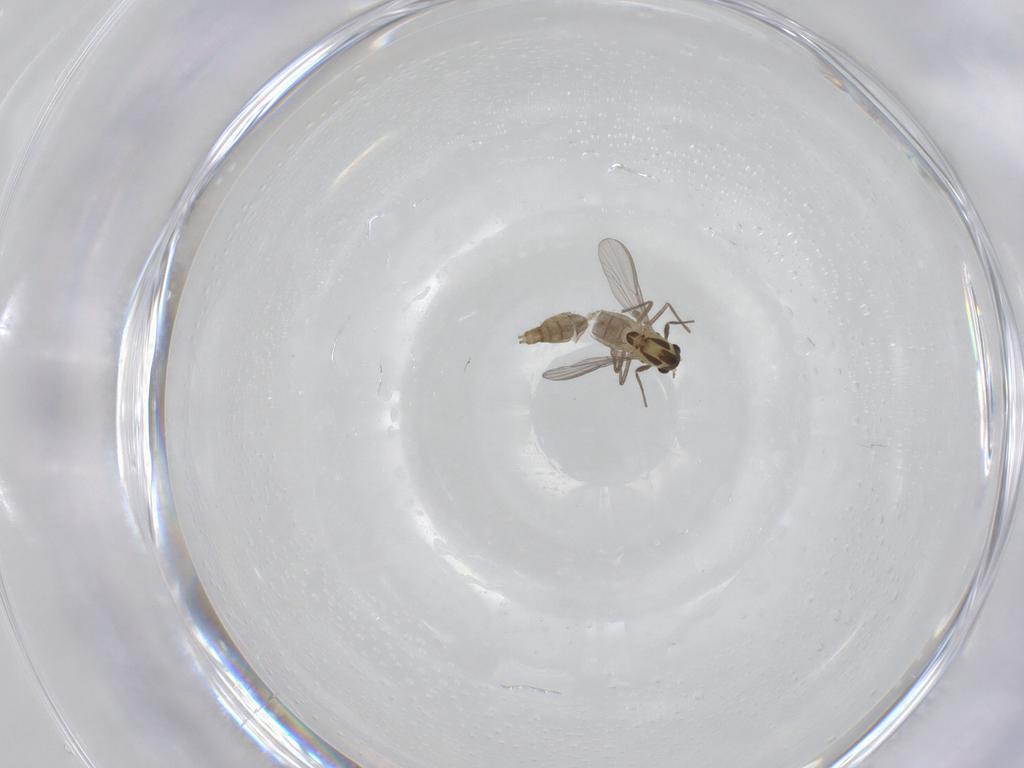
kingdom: Animalia
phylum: Arthropoda
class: Insecta
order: Diptera
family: Chironomidae
